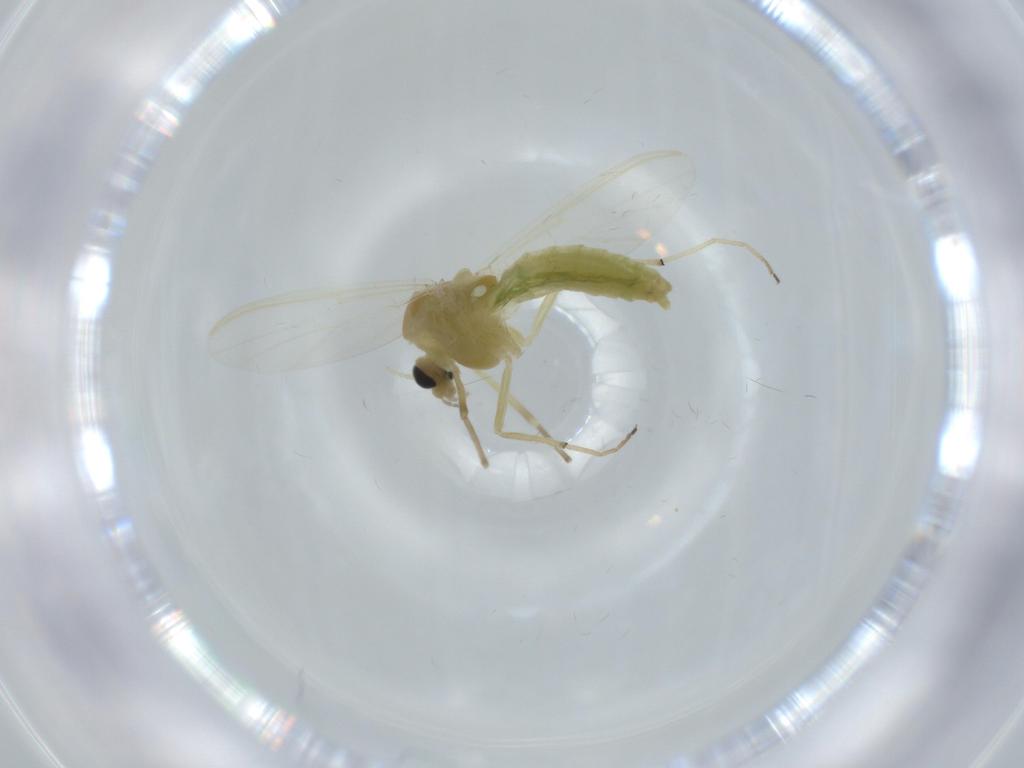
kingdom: Animalia
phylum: Arthropoda
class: Insecta
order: Diptera
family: Chironomidae
